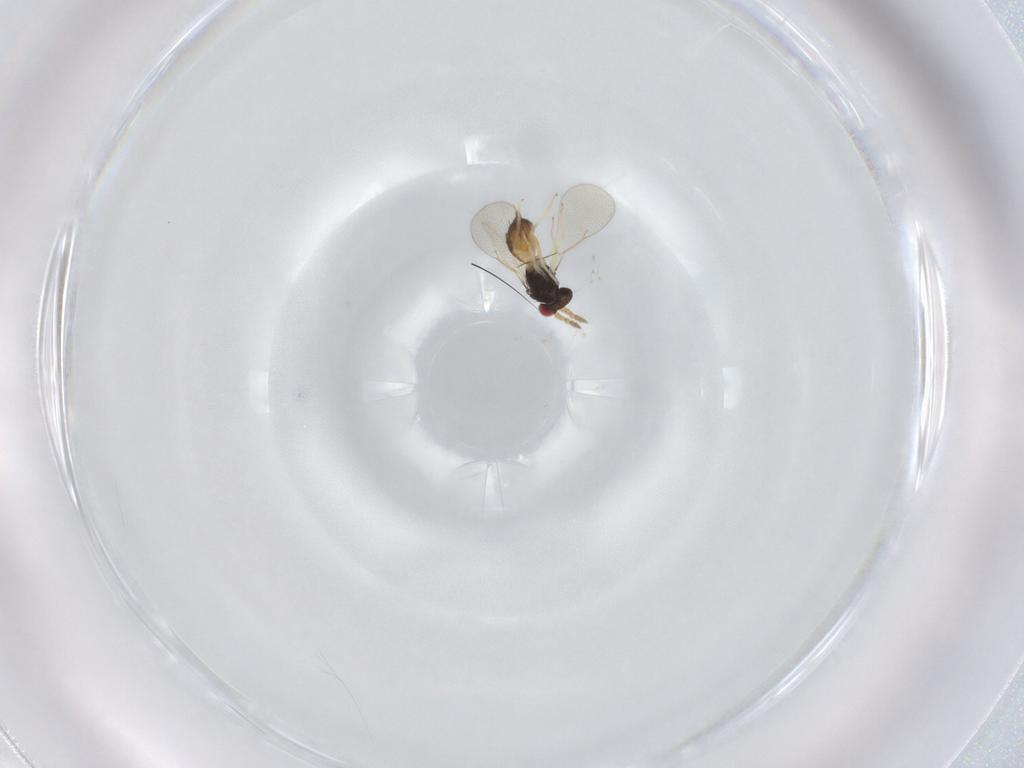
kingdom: Animalia
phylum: Arthropoda
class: Insecta
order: Hymenoptera
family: Eulophidae
